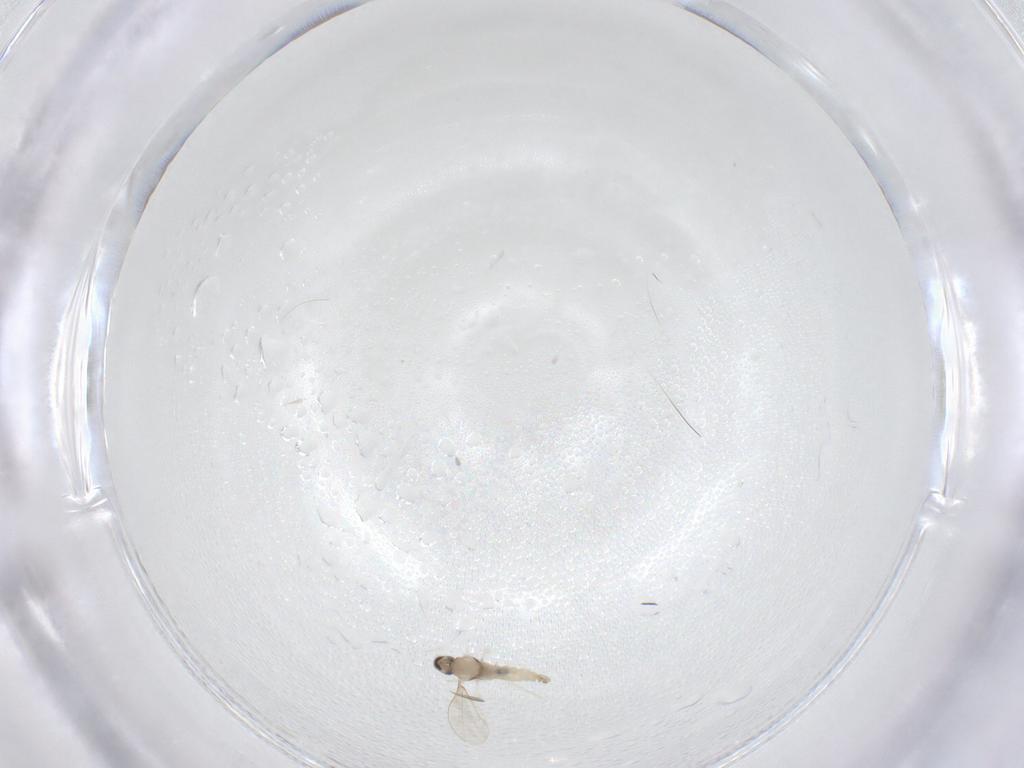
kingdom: Animalia
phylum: Arthropoda
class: Insecta
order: Diptera
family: Cecidomyiidae
